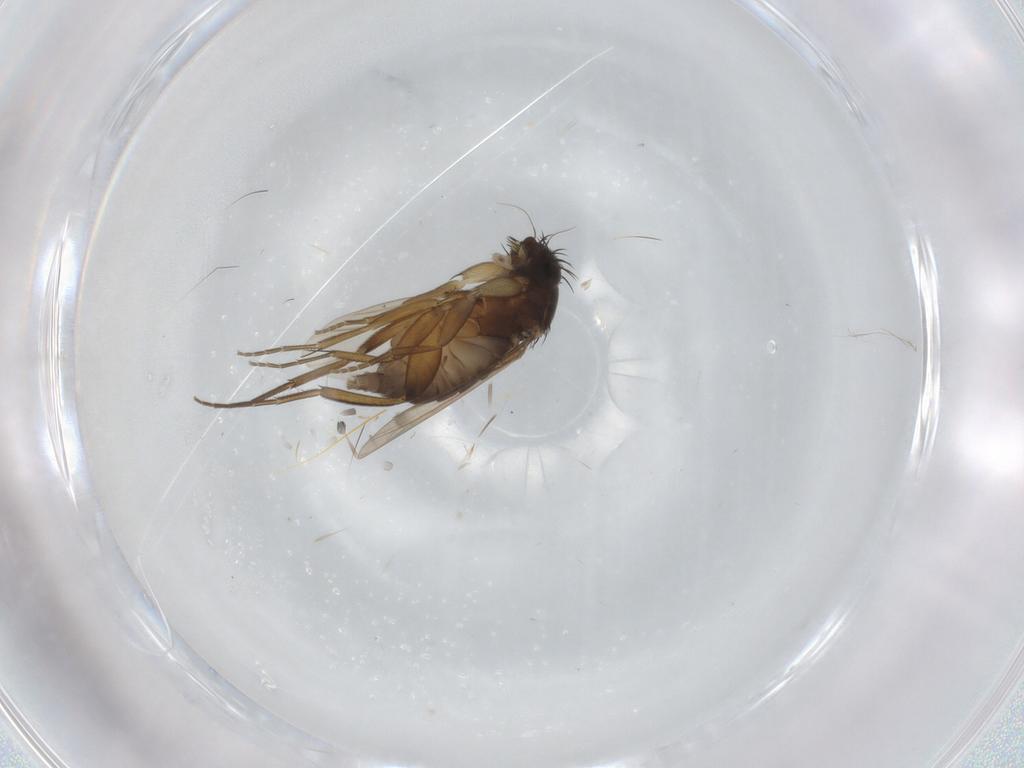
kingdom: Animalia
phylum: Arthropoda
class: Insecta
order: Diptera
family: Phoridae
